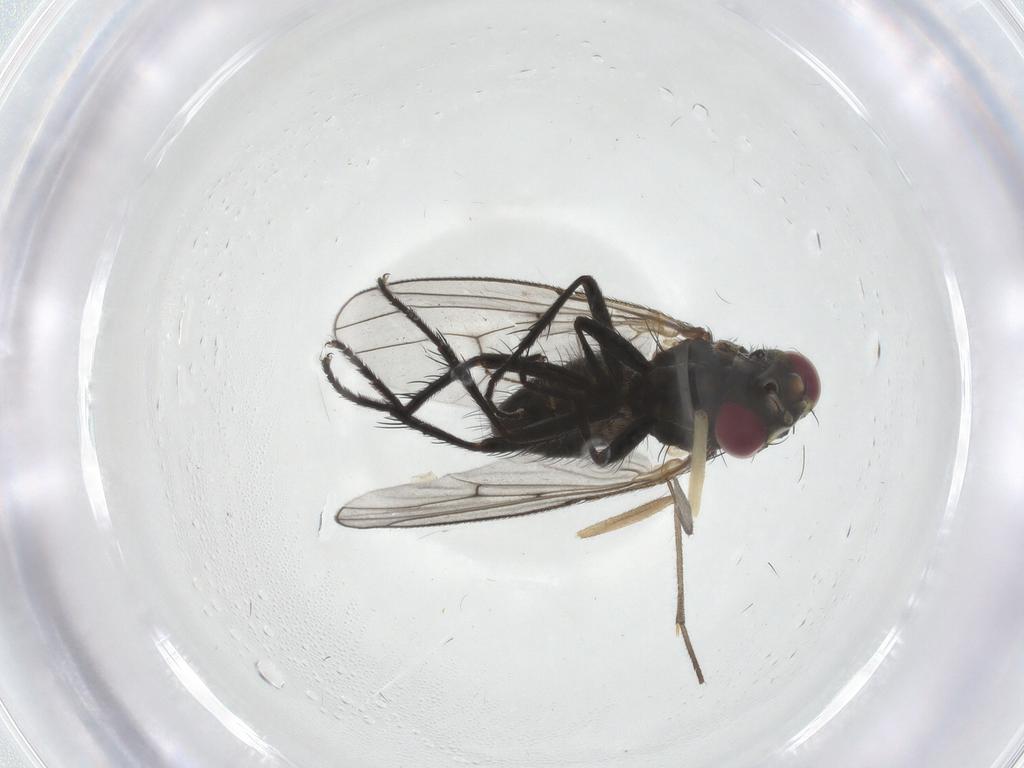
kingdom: Animalia
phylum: Arthropoda
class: Insecta
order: Diptera
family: Muscidae
